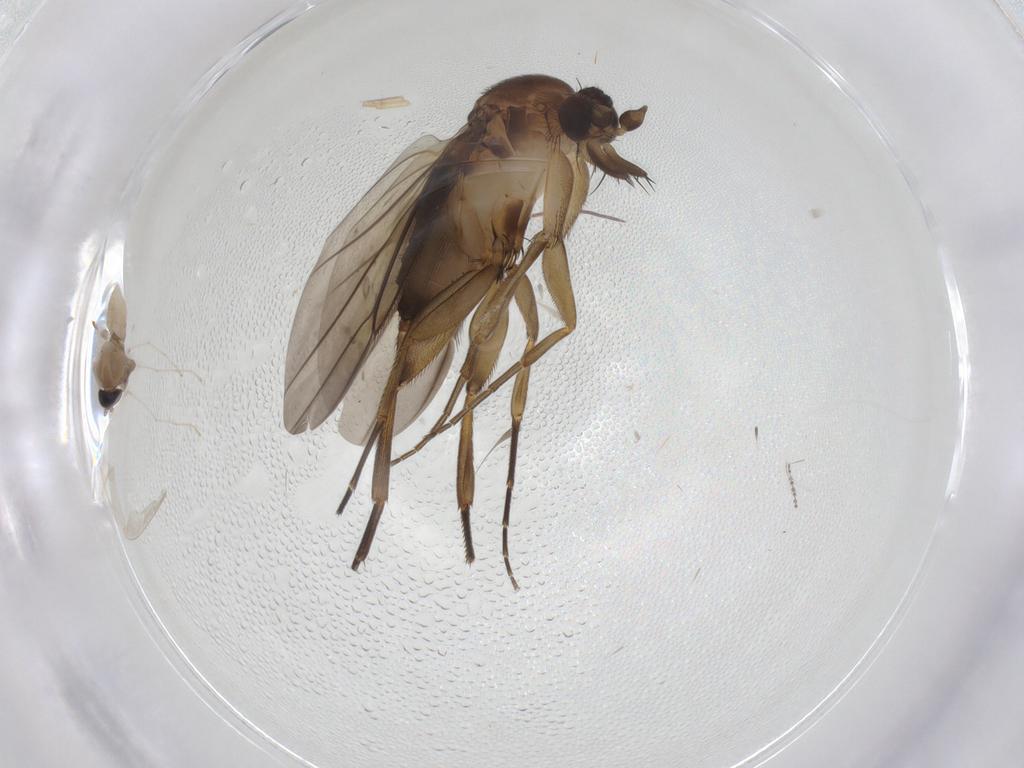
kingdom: Animalia
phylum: Arthropoda
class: Insecta
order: Diptera
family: Cecidomyiidae
